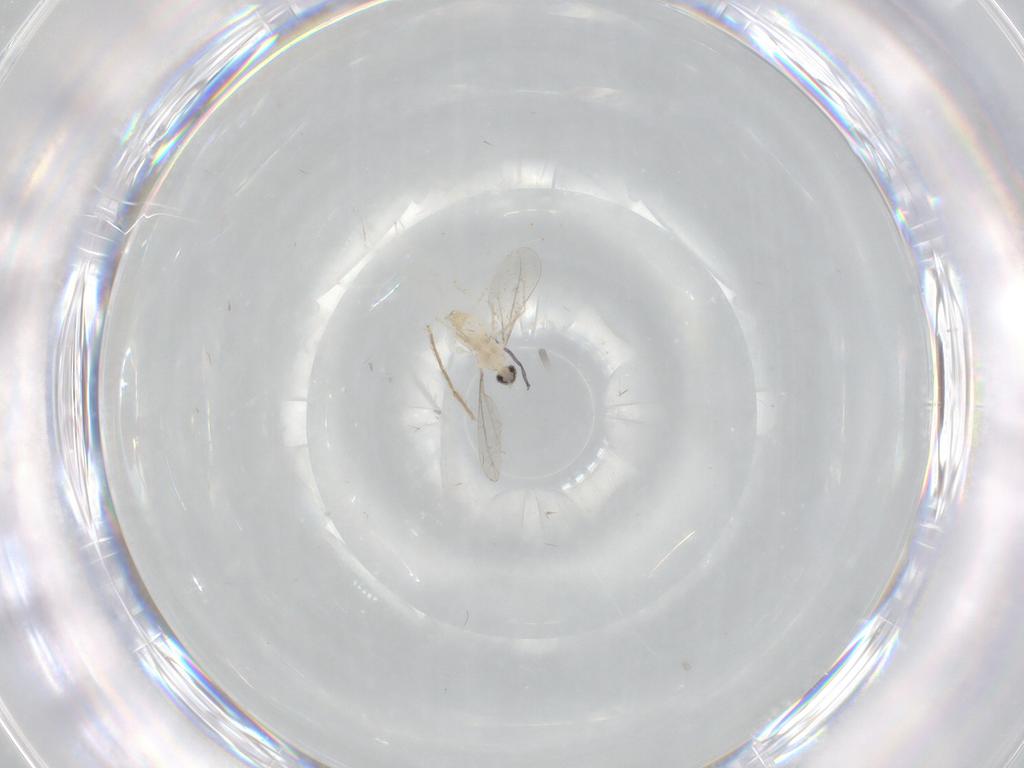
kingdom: Animalia
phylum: Arthropoda
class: Insecta
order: Diptera
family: Cecidomyiidae
